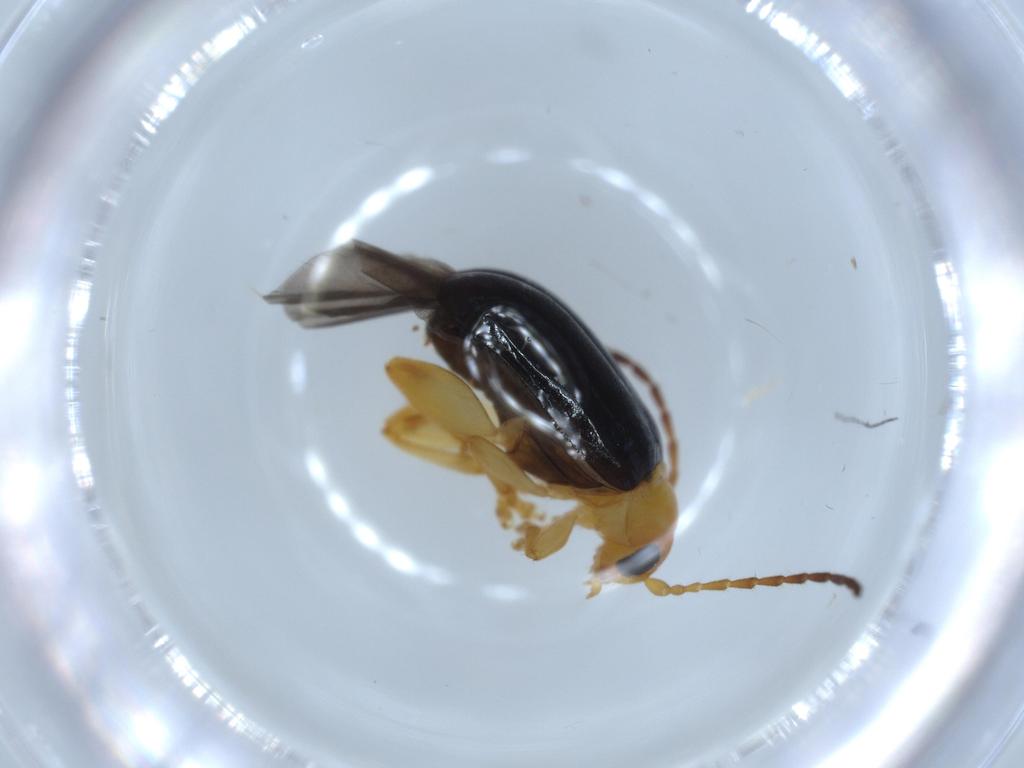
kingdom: Animalia
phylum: Arthropoda
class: Insecta
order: Coleoptera
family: Chrysomelidae
